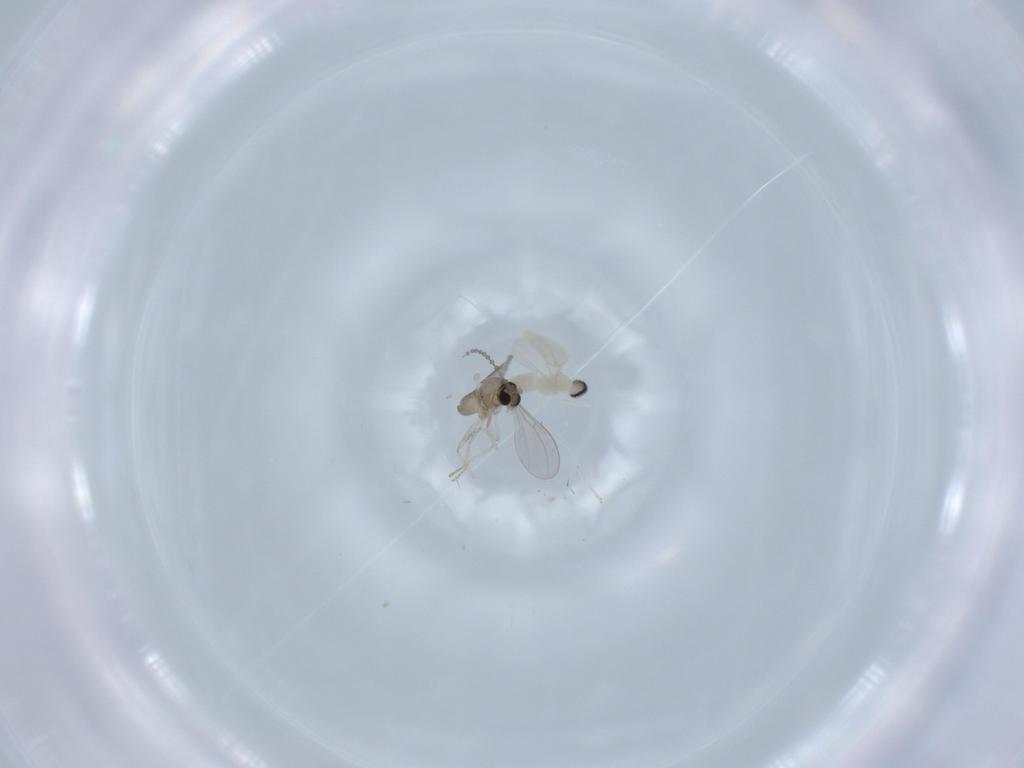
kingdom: Animalia
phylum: Arthropoda
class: Insecta
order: Diptera
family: Cecidomyiidae
